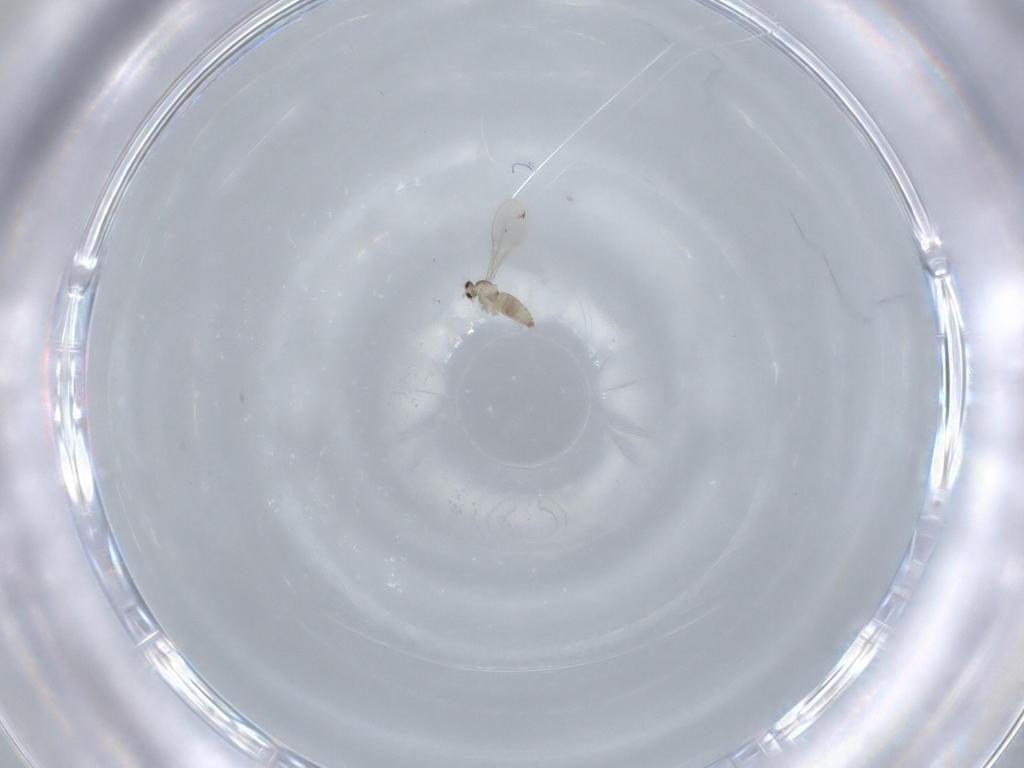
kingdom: Animalia
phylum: Arthropoda
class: Insecta
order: Diptera
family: Cecidomyiidae
